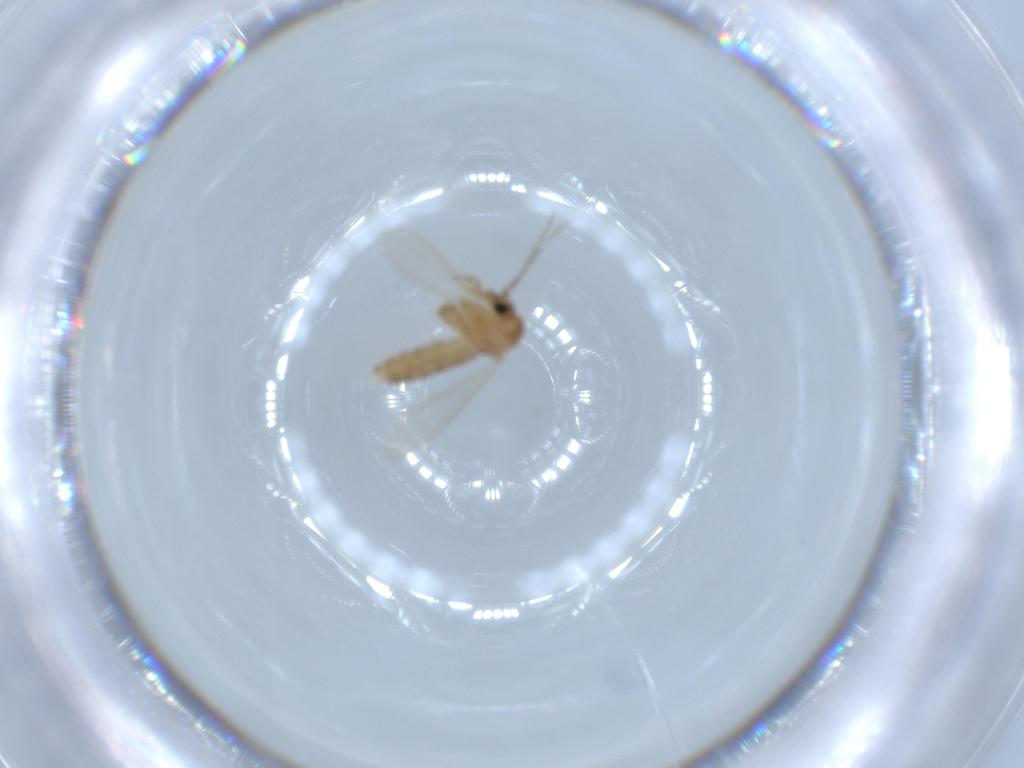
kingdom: Animalia
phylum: Arthropoda
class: Insecta
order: Diptera
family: Psychodidae
